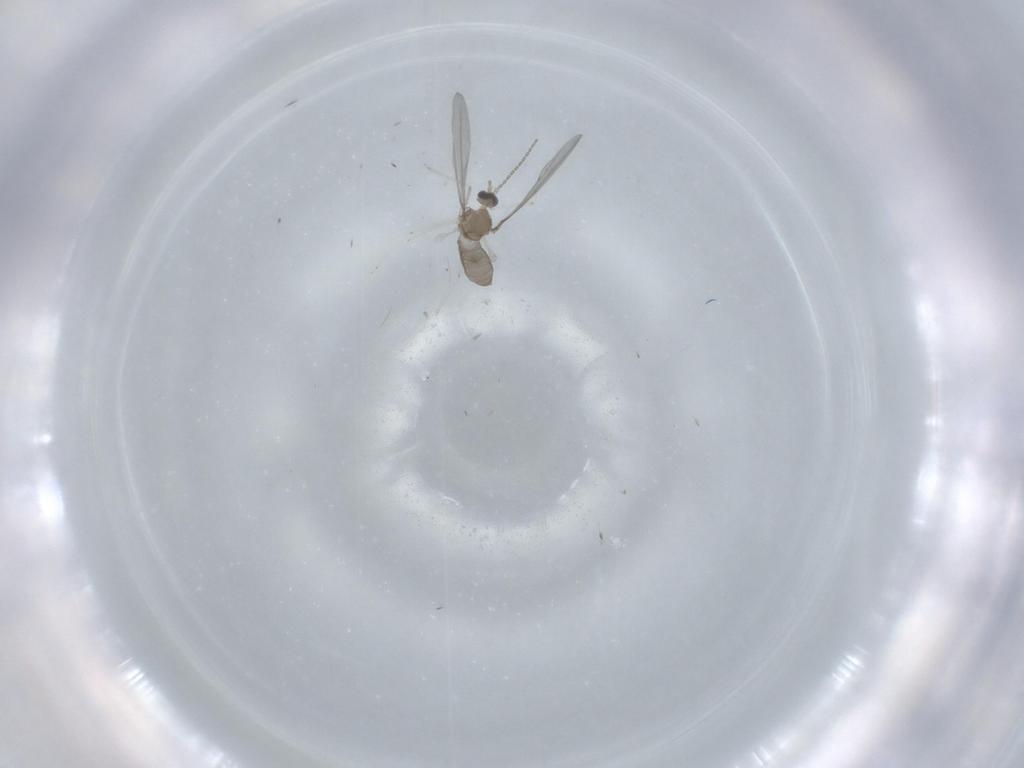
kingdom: Animalia
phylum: Arthropoda
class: Insecta
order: Diptera
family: Cecidomyiidae
